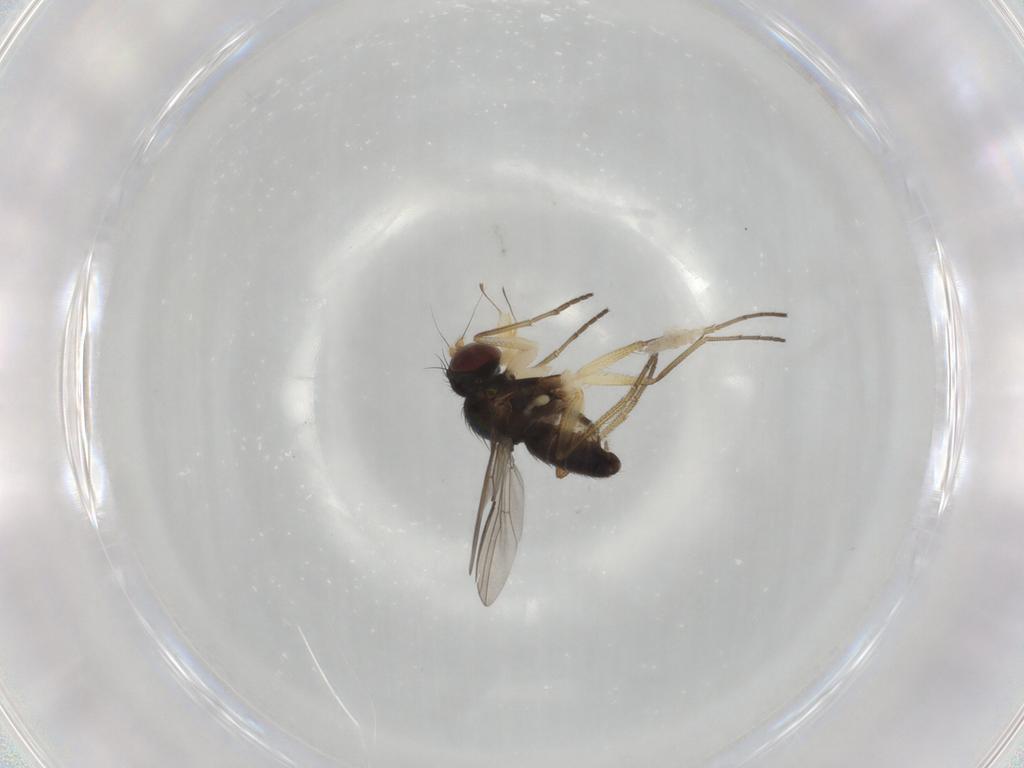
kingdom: Animalia
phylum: Arthropoda
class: Insecta
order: Diptera
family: Dolichopodidae
